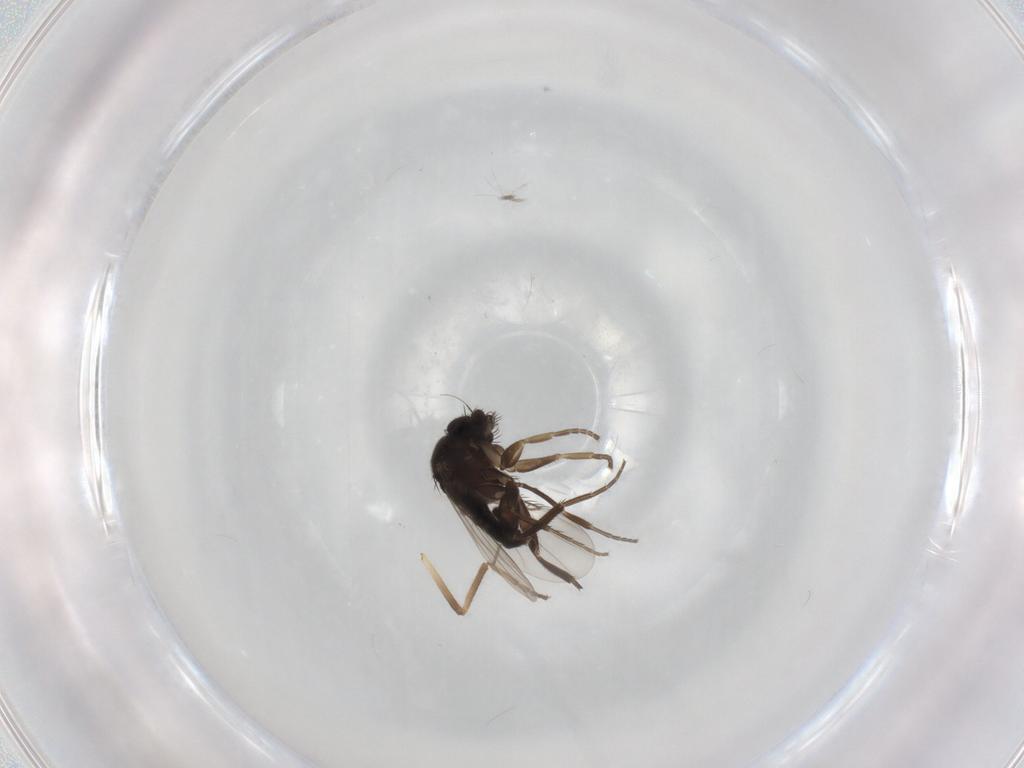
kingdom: Animalia
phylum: Arthropoda
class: Insecta
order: Diptera
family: Phoridae
